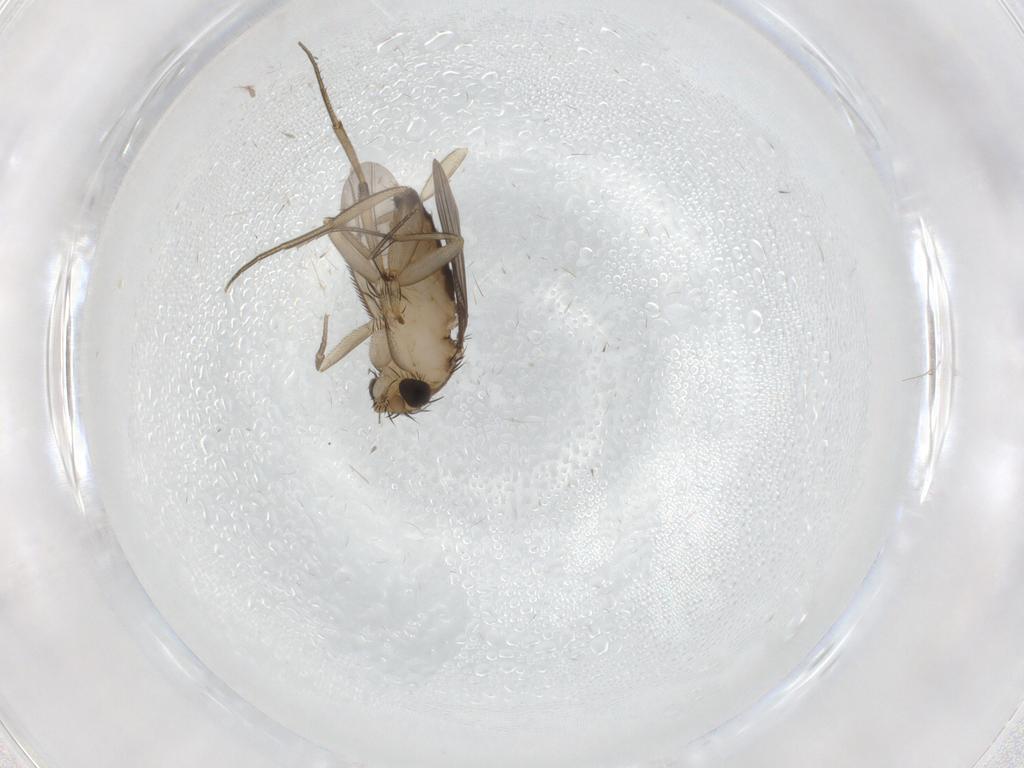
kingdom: Animalia
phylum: Arthropoda
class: Insecta
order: Diptera
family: Phoridae
